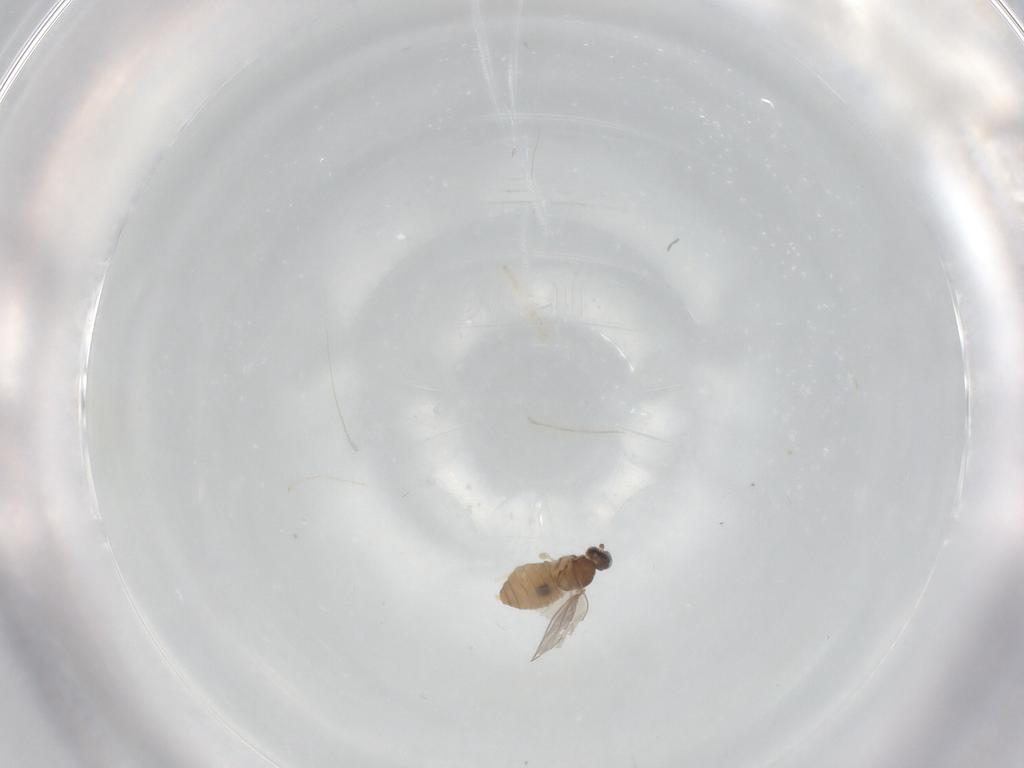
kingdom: Animalia
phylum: Arthropoda
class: Insecta
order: Diptera
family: Cecidomyiidae
